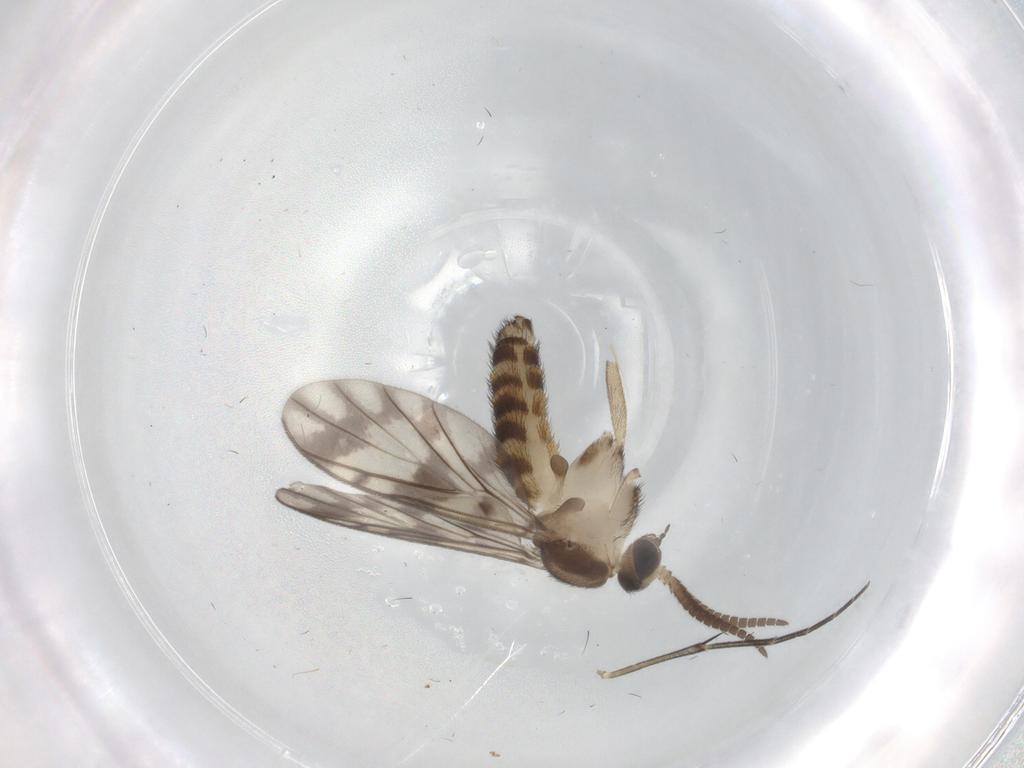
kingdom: Animalia
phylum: Arthropoda
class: Insecta
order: Diptera
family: Keroplatidae
